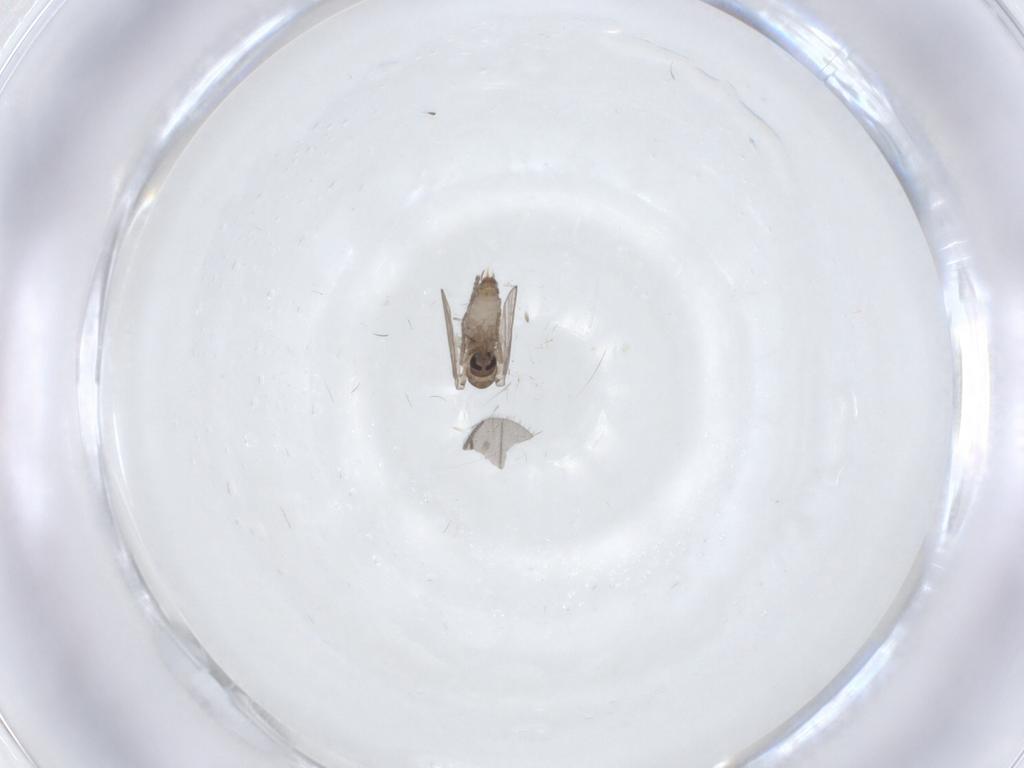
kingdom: Animalia
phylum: Arthropoda
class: Insecta
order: Diptera
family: Psychodidae
